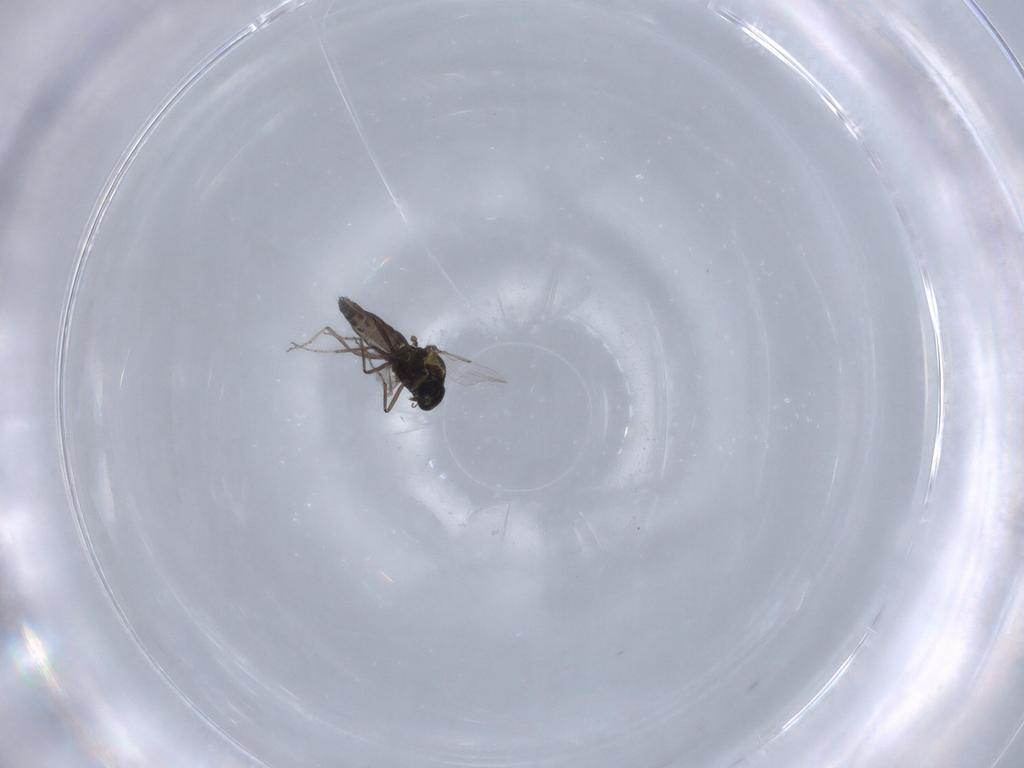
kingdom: Animalia
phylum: Arthropoda
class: Insecta
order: Diptera
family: Ceratopogonidae
